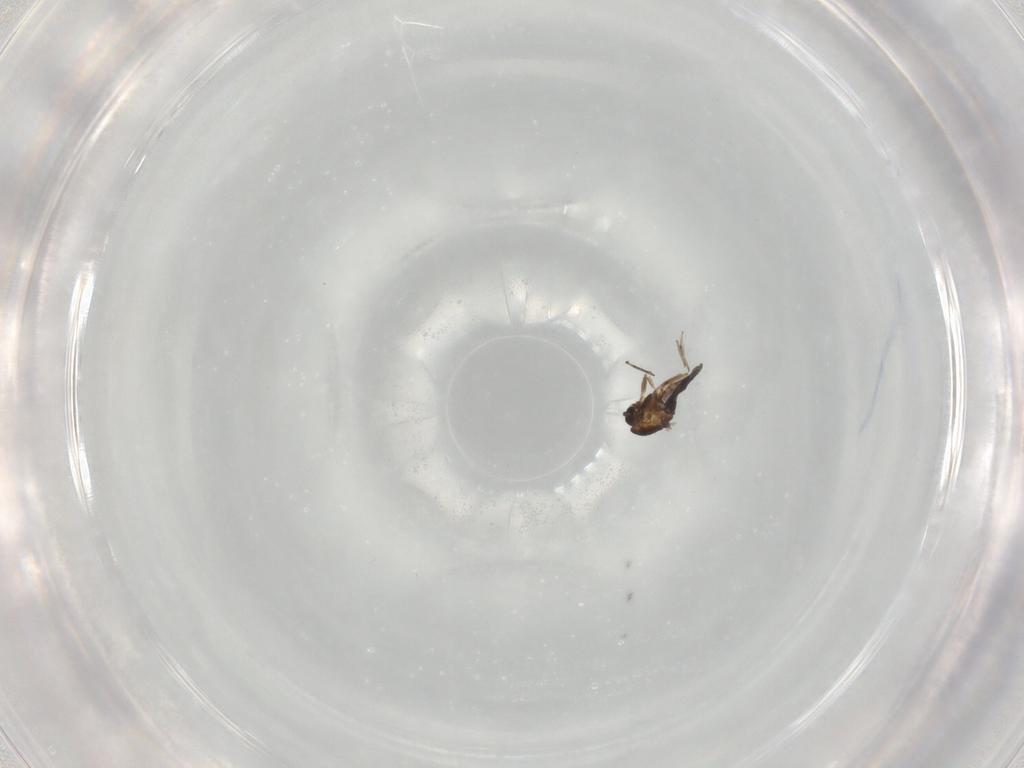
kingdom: Animalia
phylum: Arthropoda
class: Insecta
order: Diptera
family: Chironomidae
